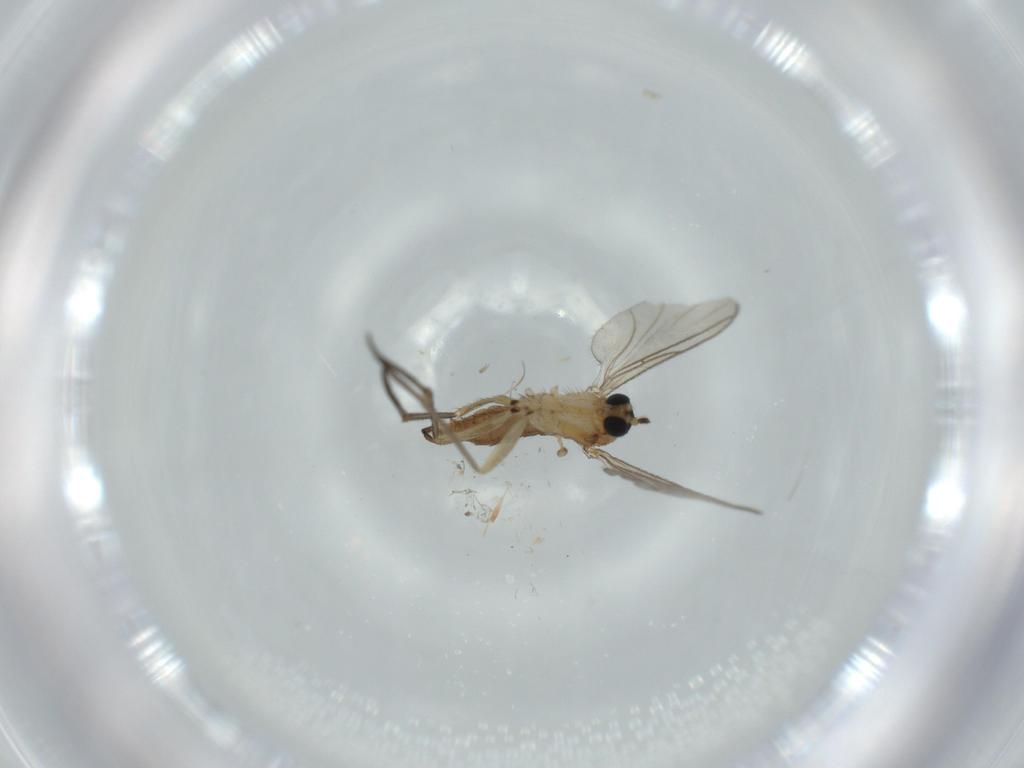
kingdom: Animalia
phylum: Arthropoda
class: Insecta
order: Diptera
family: Sciaridae
